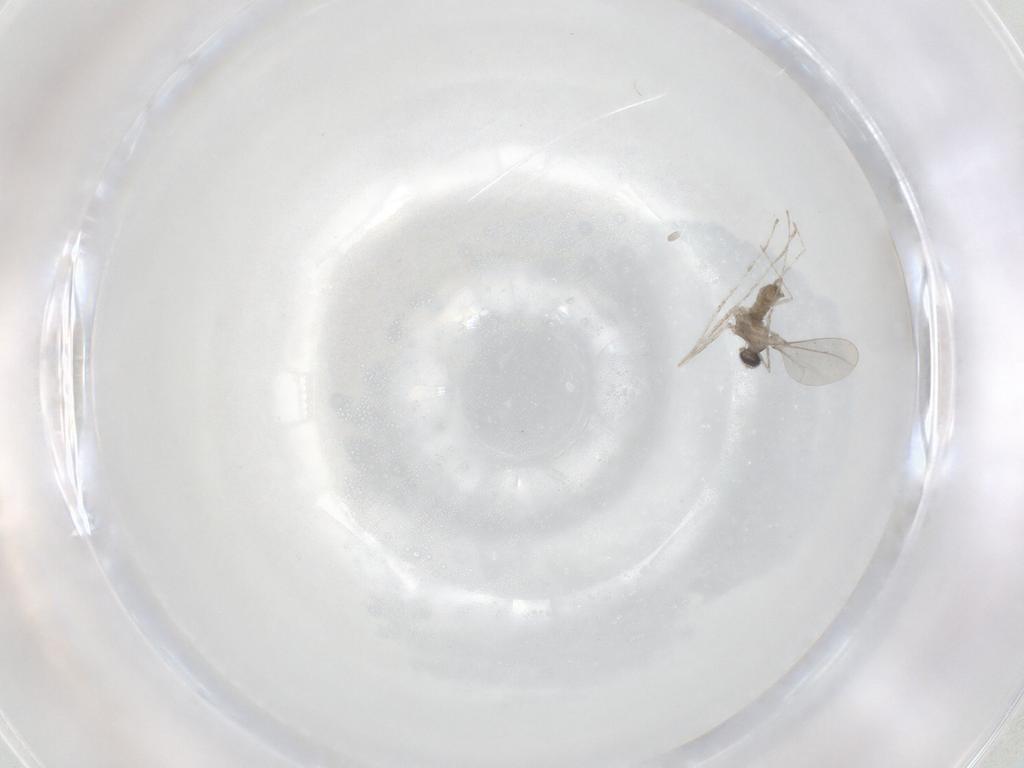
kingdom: Animalia
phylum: Arthropoda
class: Insecta
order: Diptera
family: Cecidomyiidae
